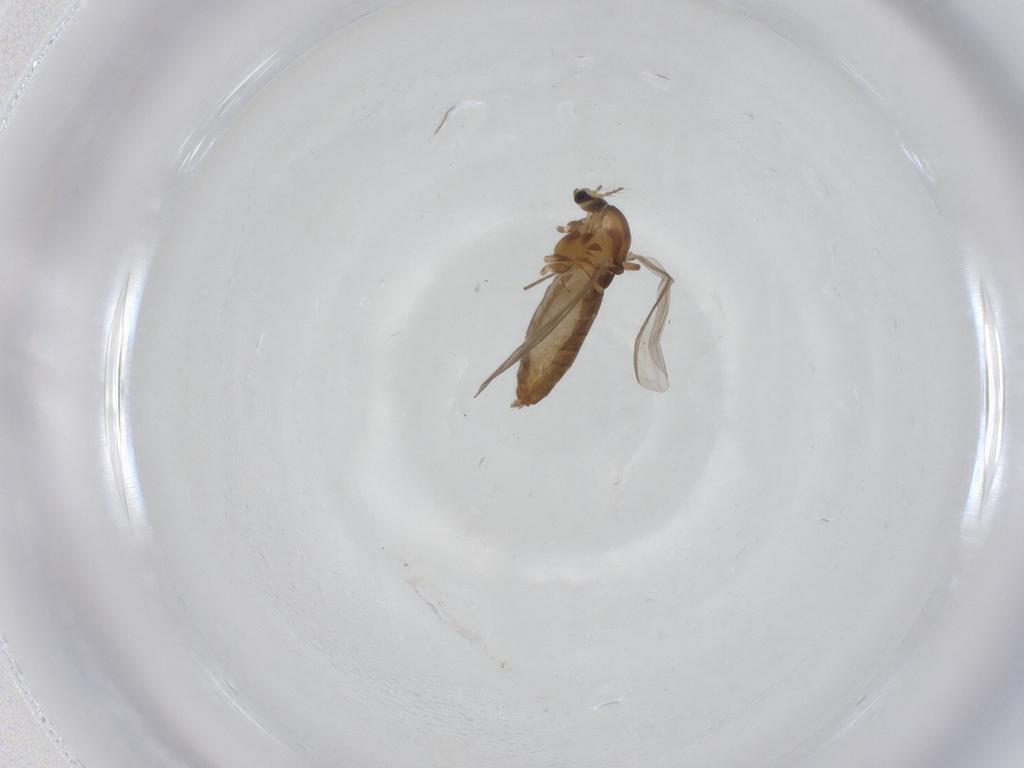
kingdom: Animalia
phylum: Arthropoda
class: Insecta
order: Diptera
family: Chironomidae
